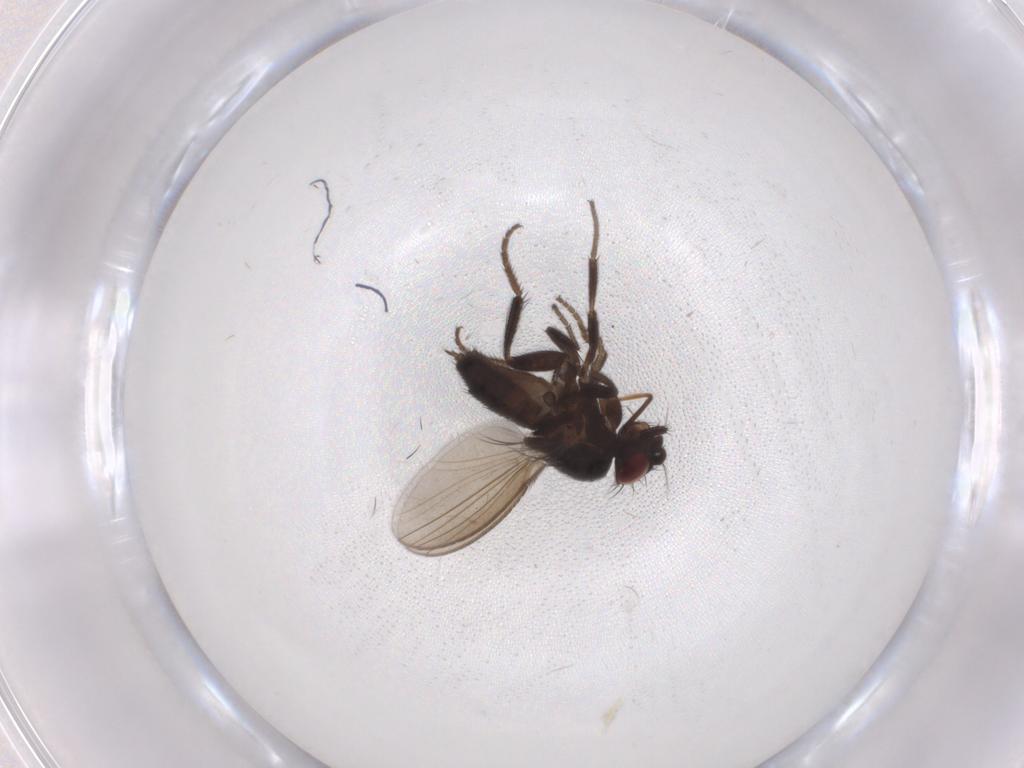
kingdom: Animalia
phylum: Arthropoda
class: Insecta
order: Diptera
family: Milichiidae
